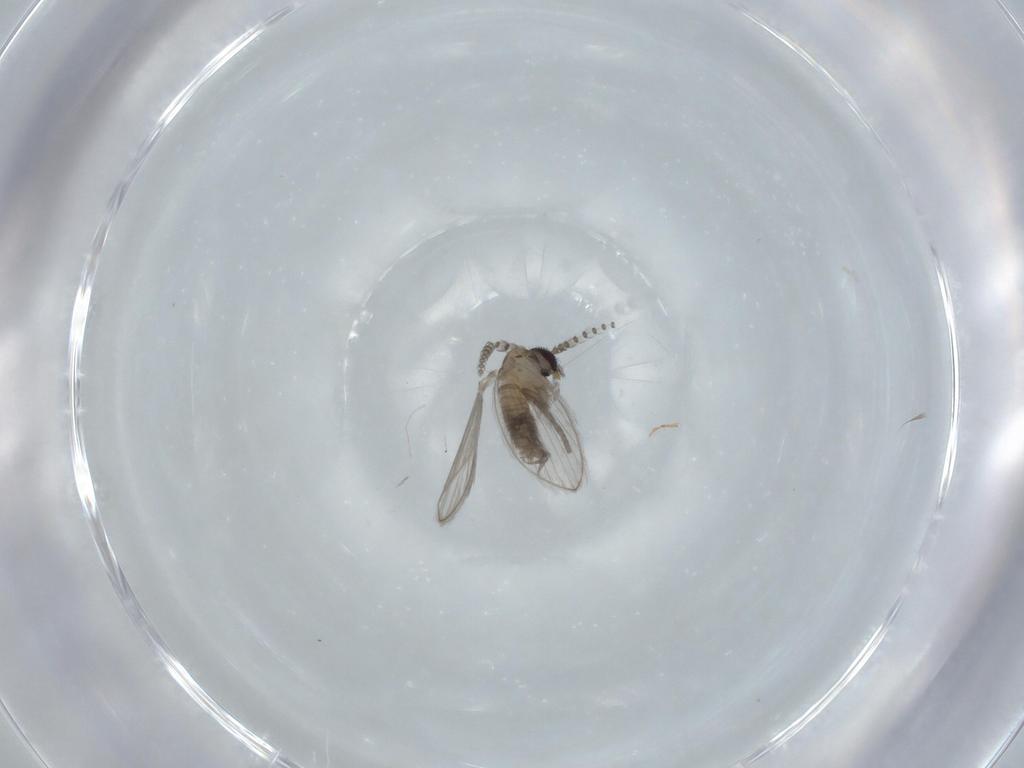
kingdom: Animalia
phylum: Arthropoda
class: Insecta
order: Diptera
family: Psychodidae
